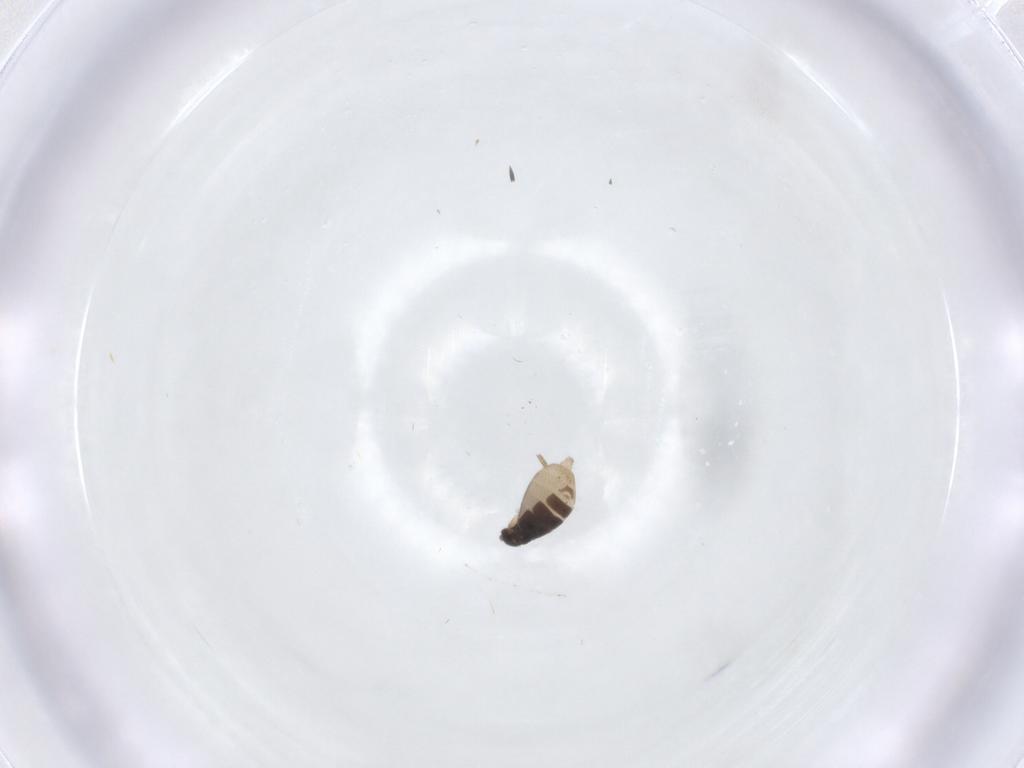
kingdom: Animalia
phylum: Arthropoda
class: Insecta
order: Diptera
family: Phoridae
